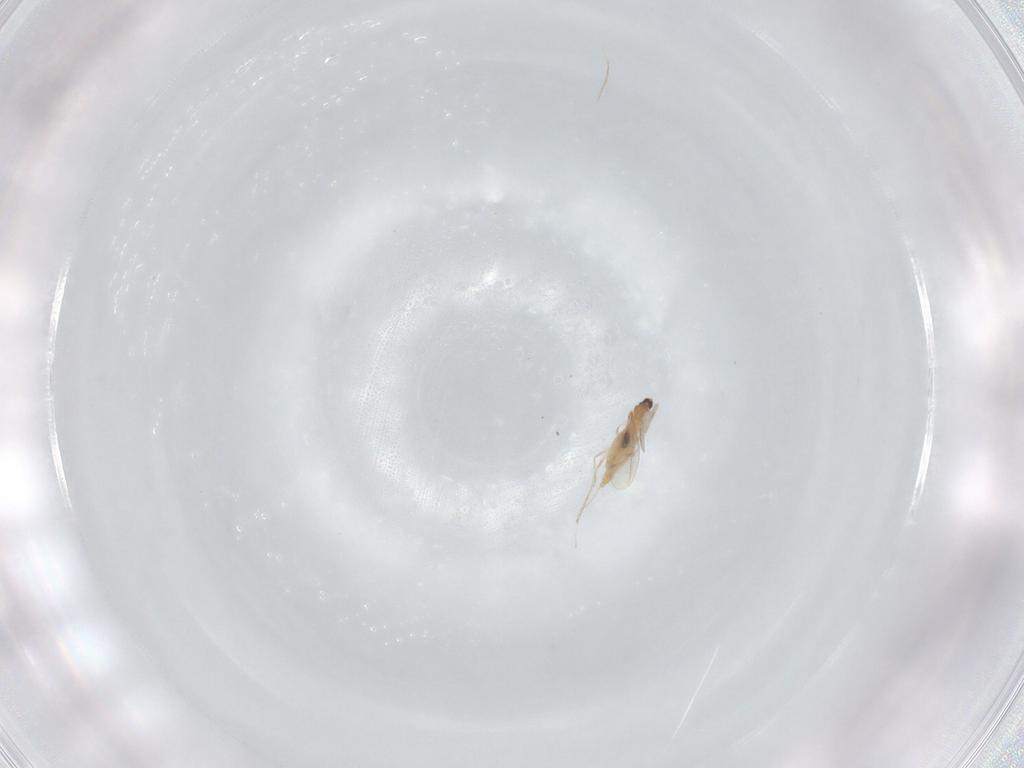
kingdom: Animalia
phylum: Arthropoda
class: Insecta
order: Diptera
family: Cecidomyiidae
